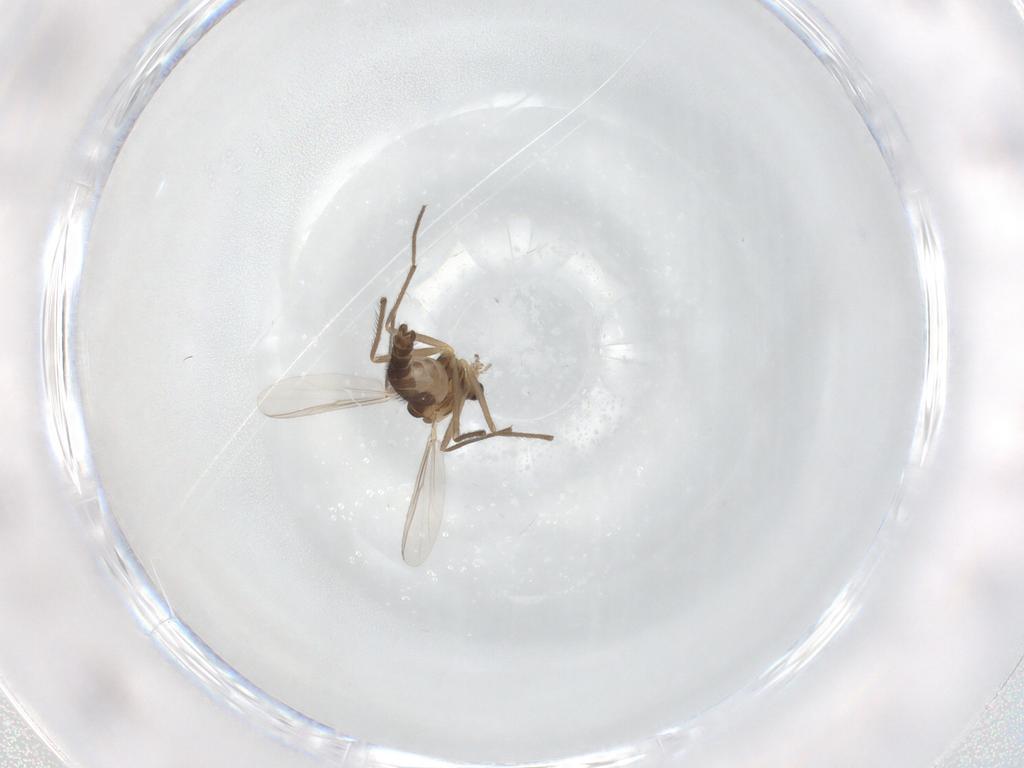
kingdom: Animalia
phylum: Arthropoda
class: Insecta
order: Diptera
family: Chironomidae
